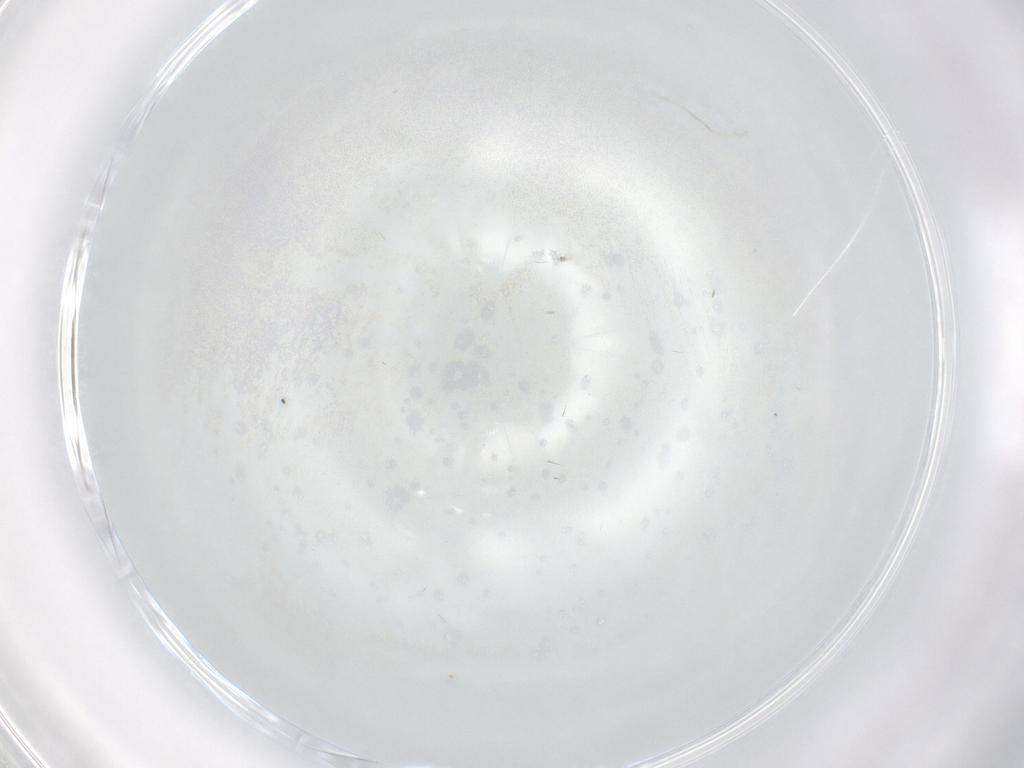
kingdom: Animalia
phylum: Arthropoda
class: Insecta
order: Diptera
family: Cecidomyiidae
